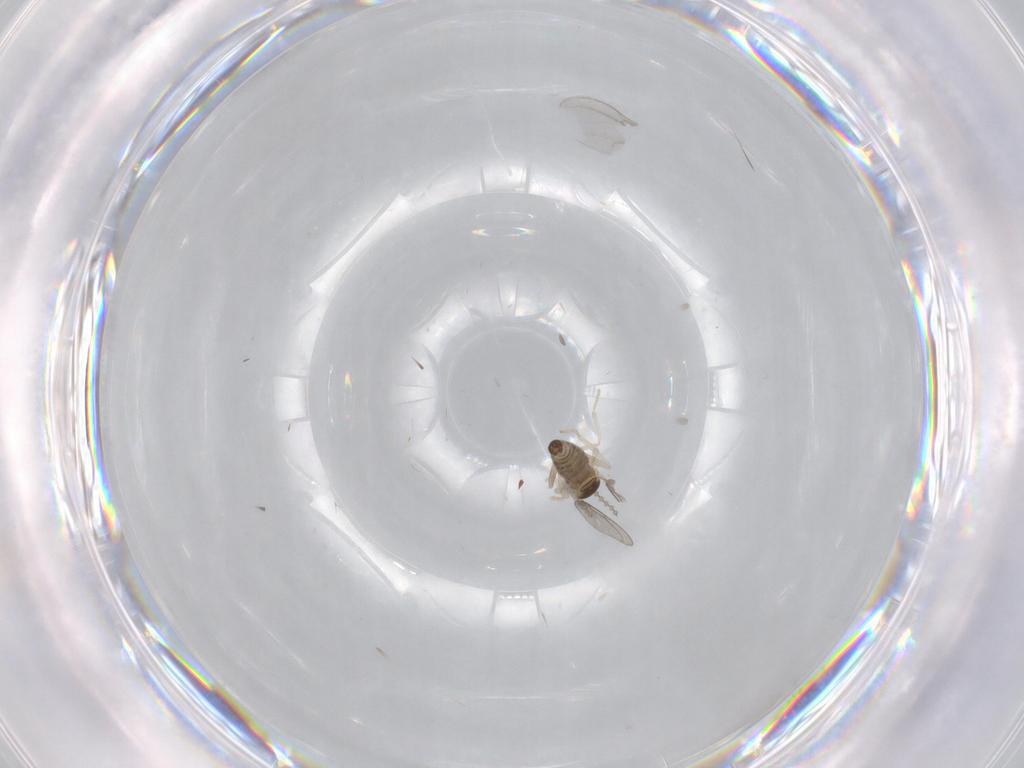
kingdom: Animalia
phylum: Arthropoda
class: Insecta
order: Diptera
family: Cecidomyiidae
